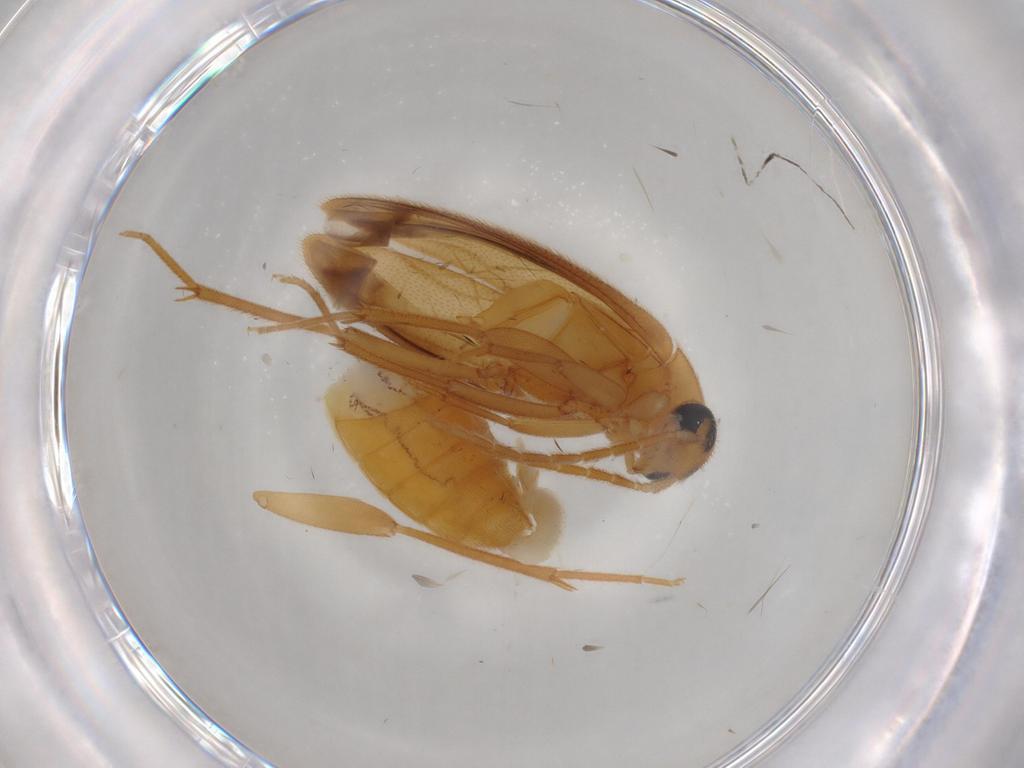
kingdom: Animalia
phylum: Arthropoda
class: Insecta
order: Coleoptera
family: Scraptiidae
